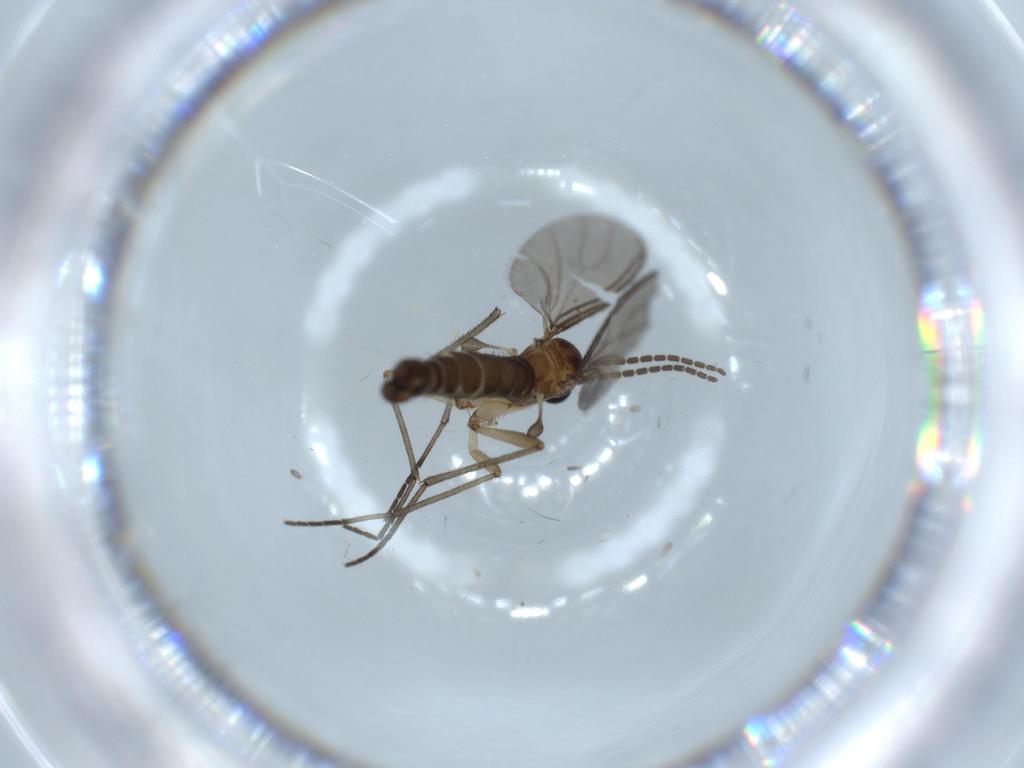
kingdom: Animalia
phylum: Arthropoda
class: Insecta
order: Diptera
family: Sciaridae
